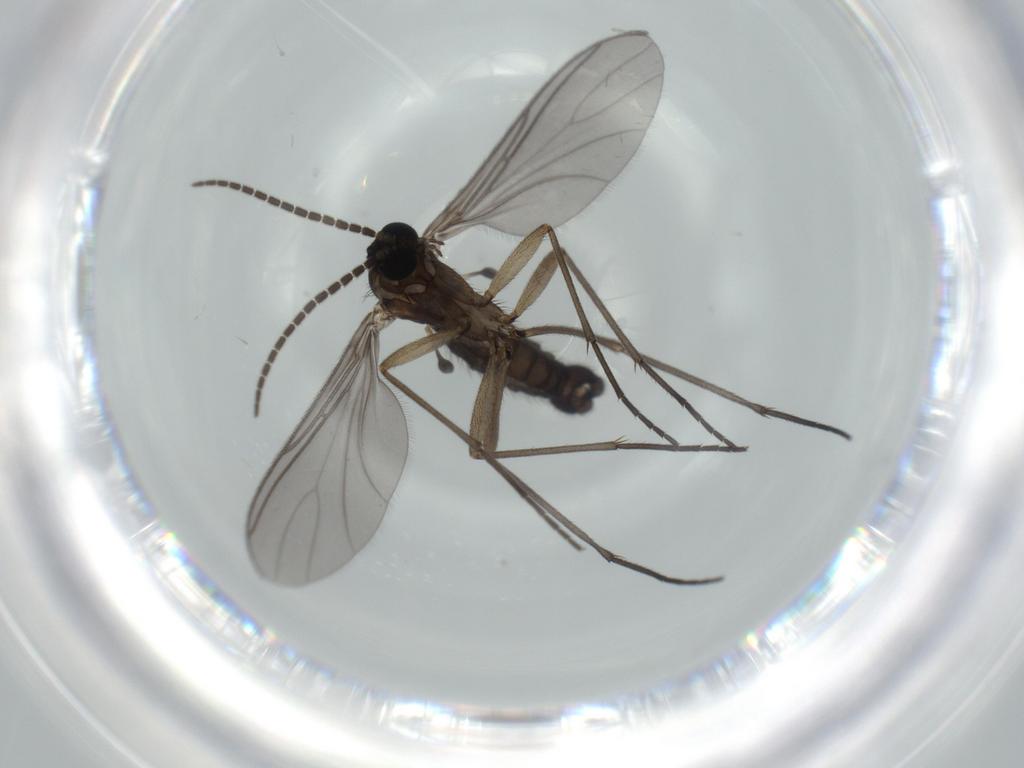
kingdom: Animalia
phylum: Arthropoda
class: Insecta
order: Diptera
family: Sciaridae
